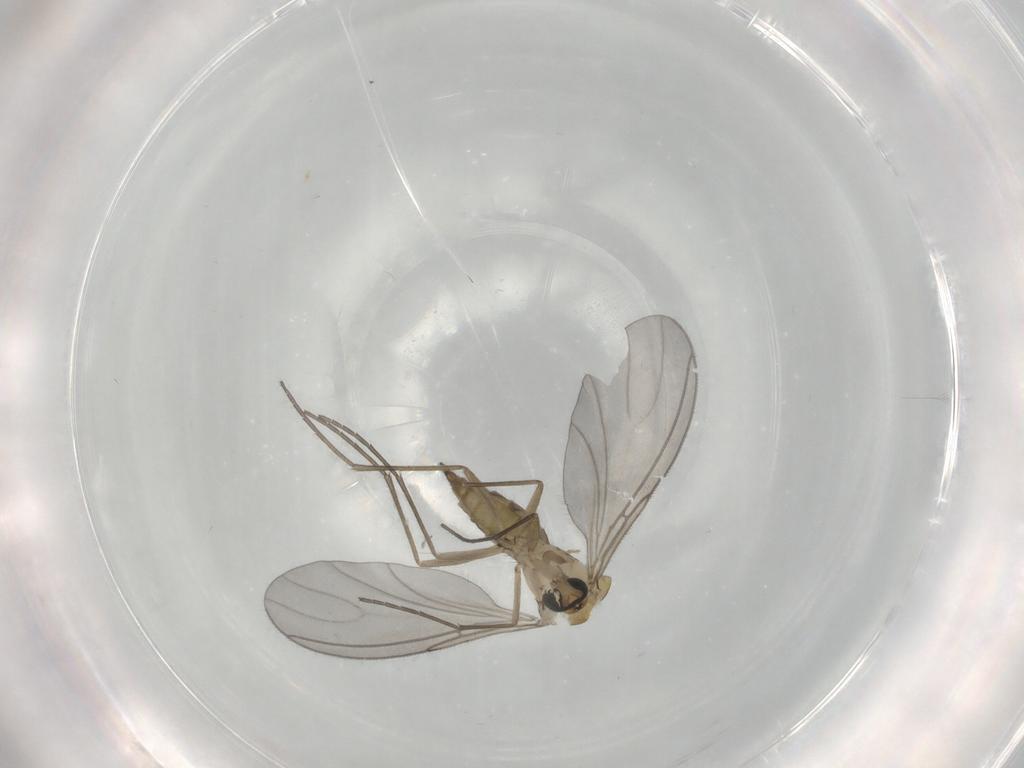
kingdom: Animalia
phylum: Arthropoda
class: Insecta
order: Diptera
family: Sciaridae
